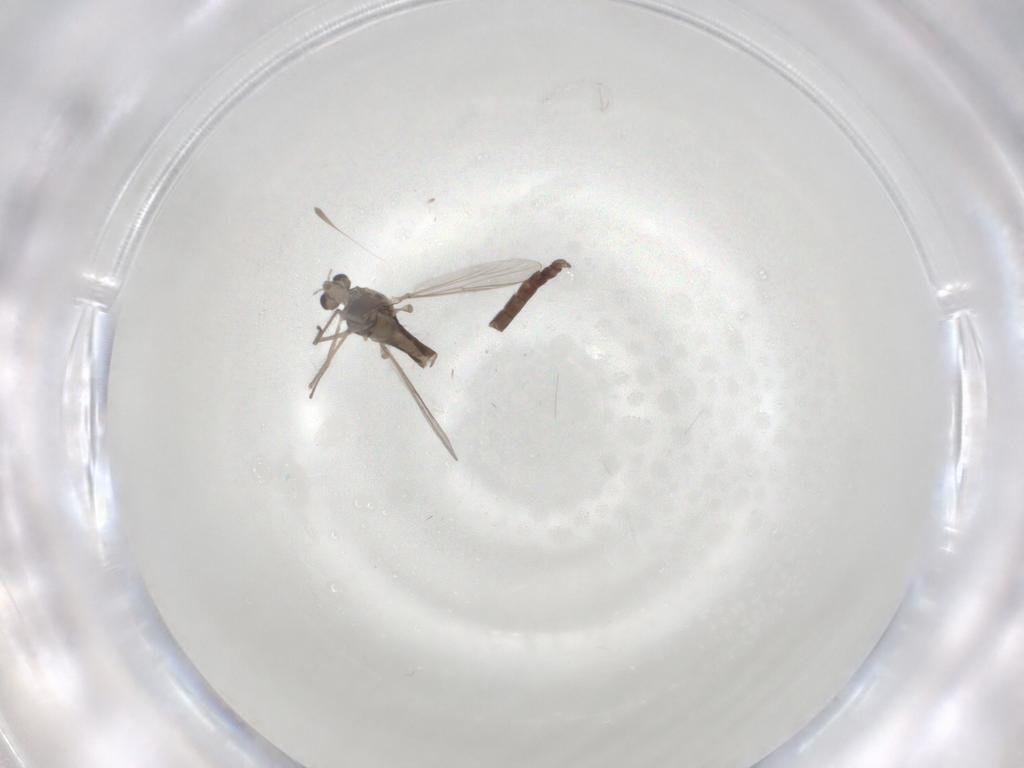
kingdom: Animalia
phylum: Arthropoda
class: Insecta
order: Diptera
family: Chironomidae
